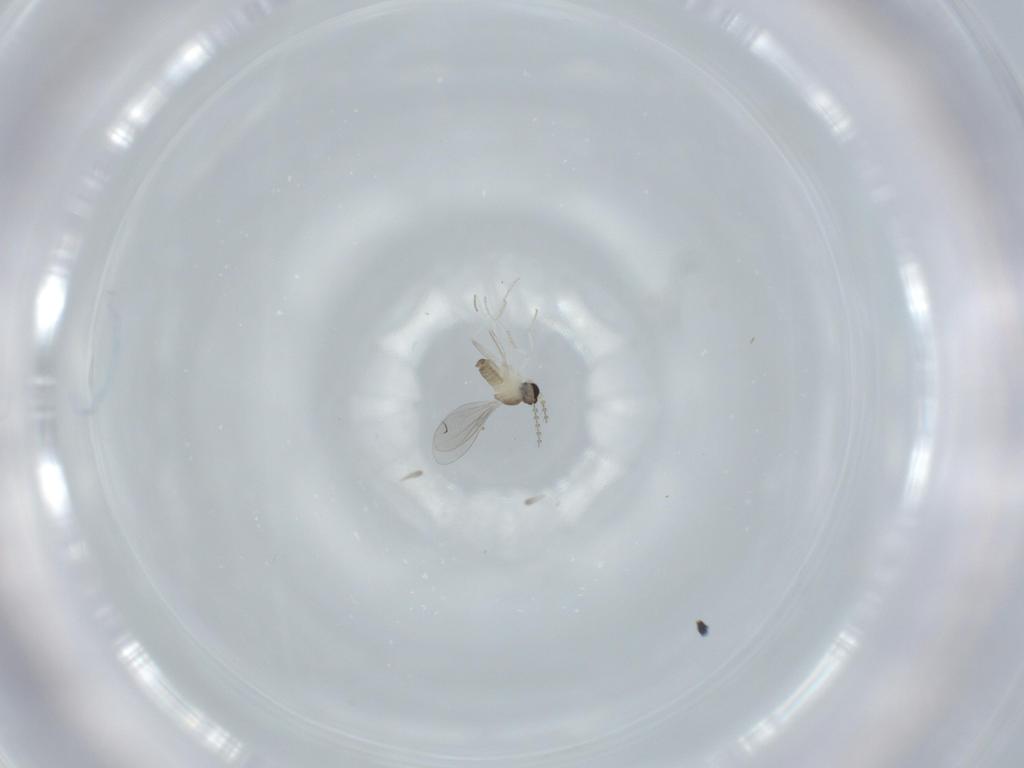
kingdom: Animalia
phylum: Arthropoda
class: Insecta
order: Diptera
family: Cecidomyiidae
